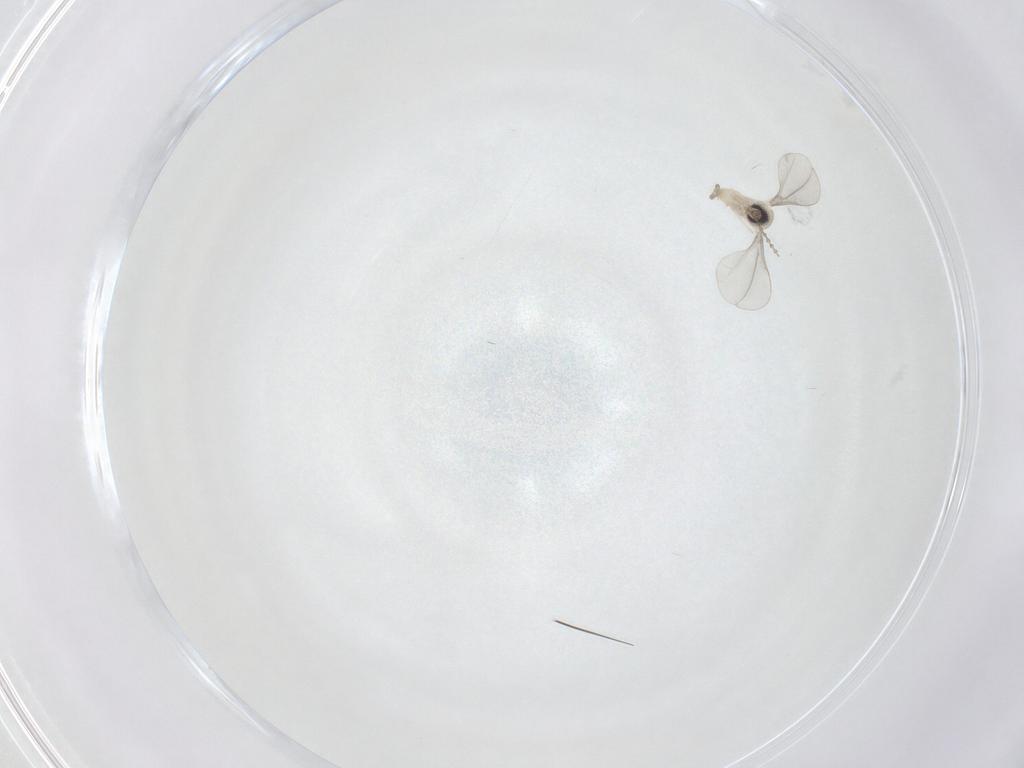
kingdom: Animalia
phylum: Arthropoda
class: Insecta
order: Diptera
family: Cecidomyiidae
